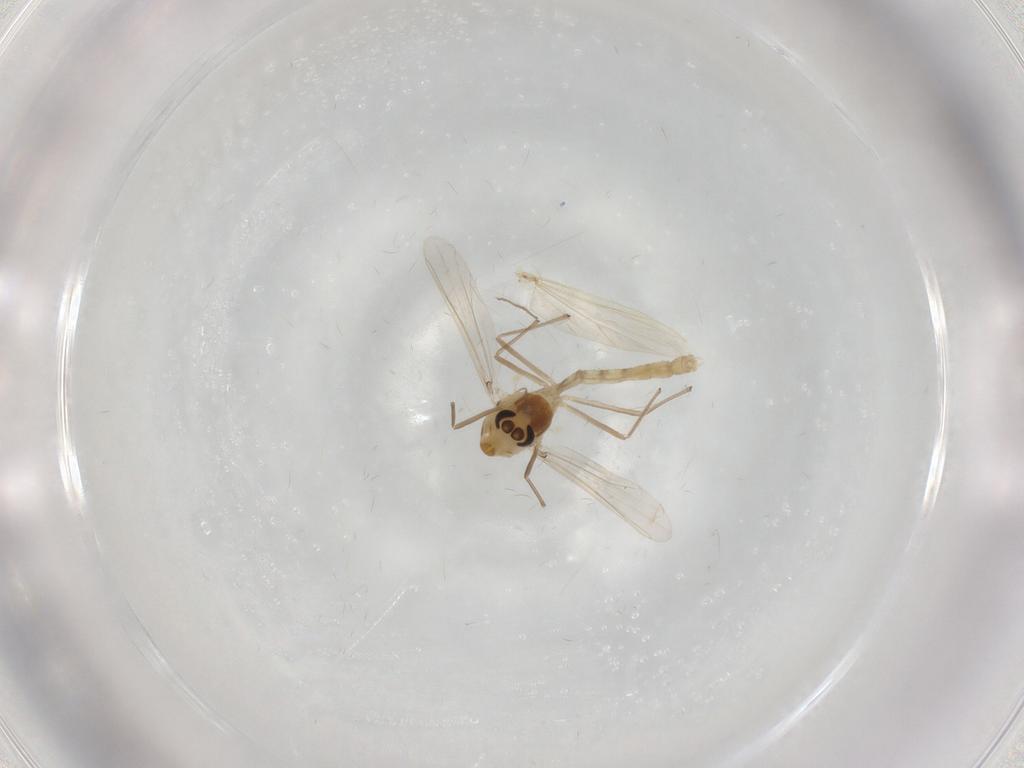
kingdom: Animalia
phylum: Arthropoda
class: Insecta
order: Diptera
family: Chironomidae
